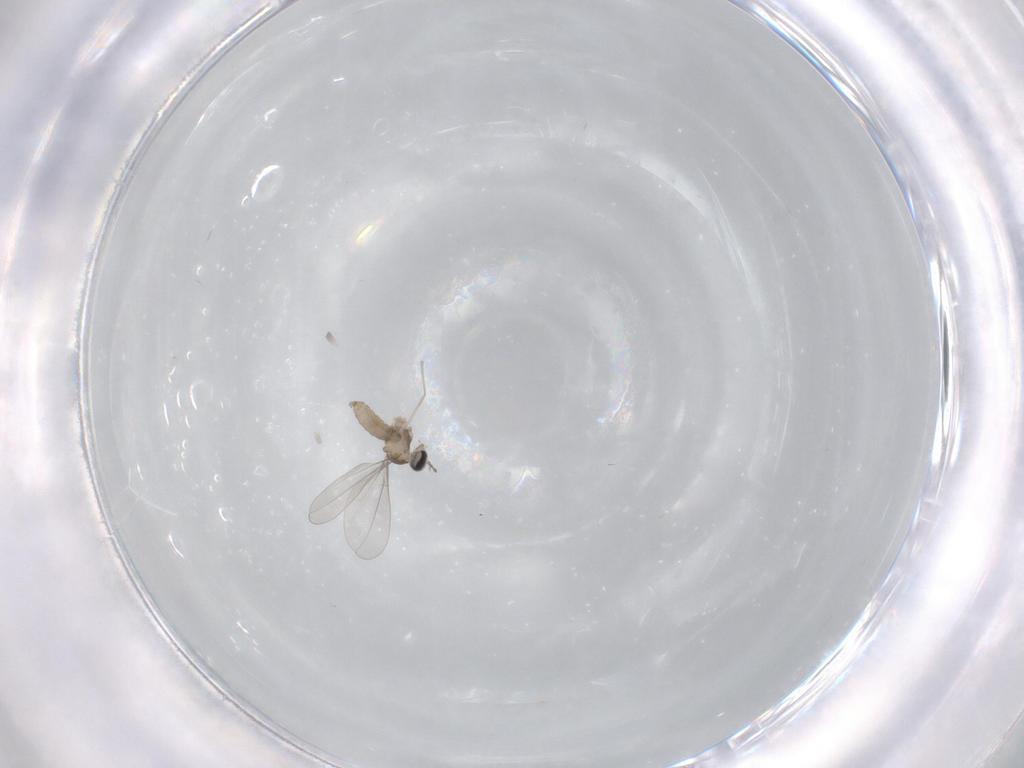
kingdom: Animalia
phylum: Arthropoda
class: Insecta
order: Diptera
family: Cecidomyiidae
